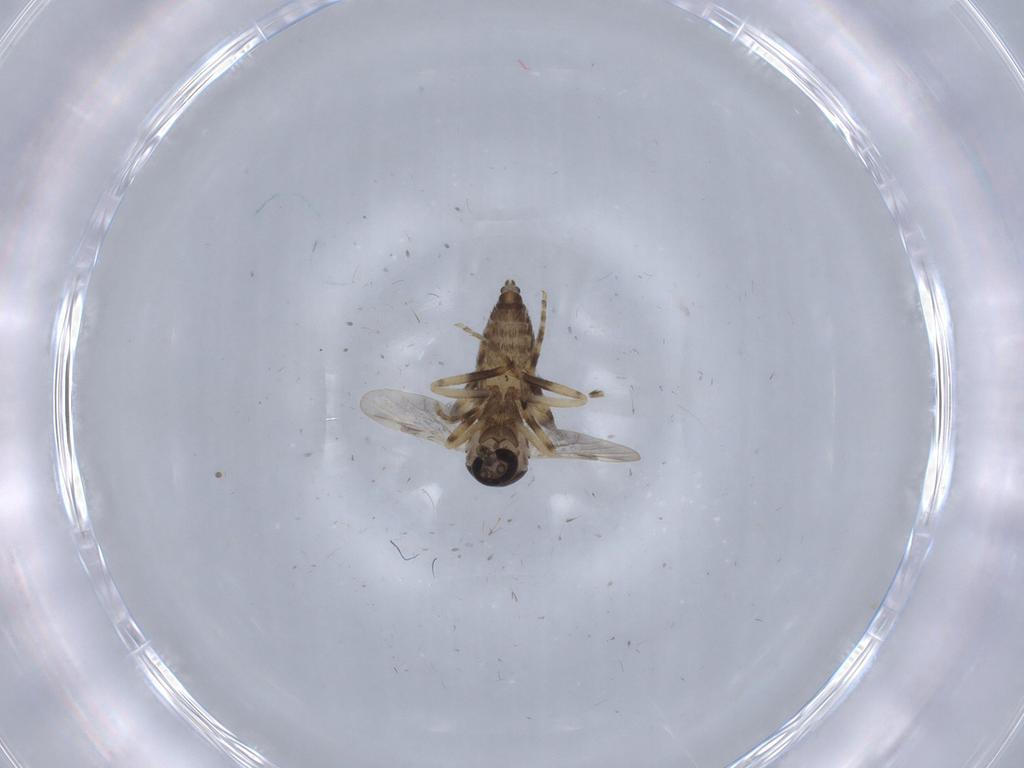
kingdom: Animalia
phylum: Arthropoda
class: Insecta
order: Diptera
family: Ceratopogonidae
